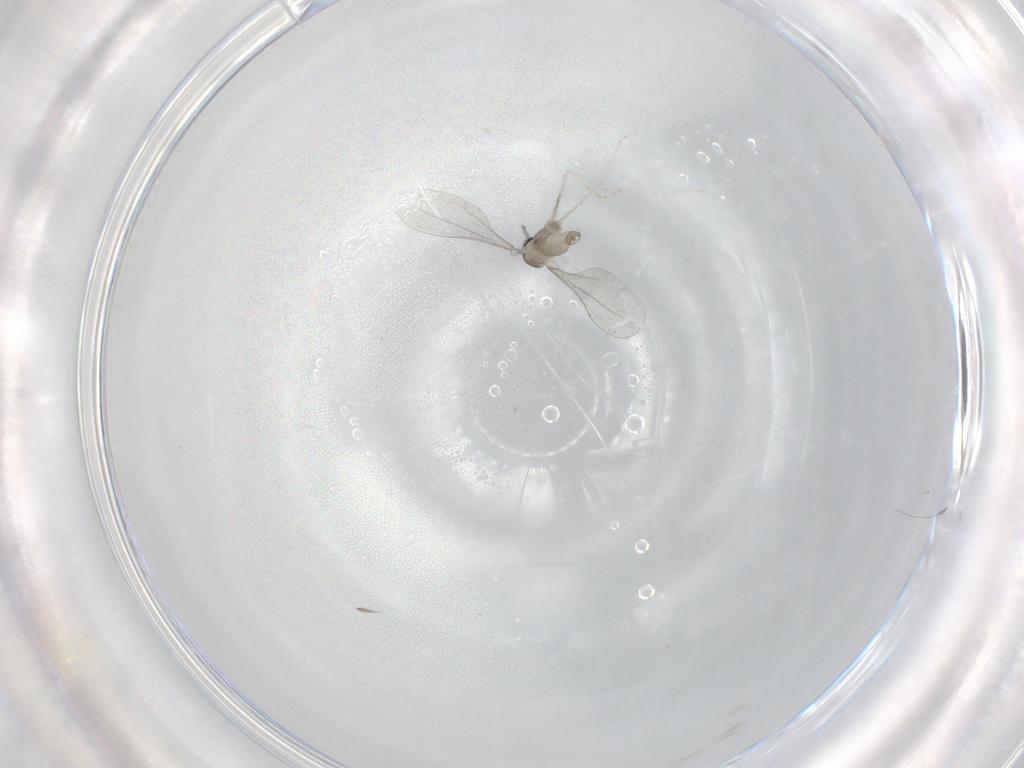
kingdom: Animalia
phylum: Arthropoda
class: Insecta
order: Diptera
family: Cecidomyiidae
